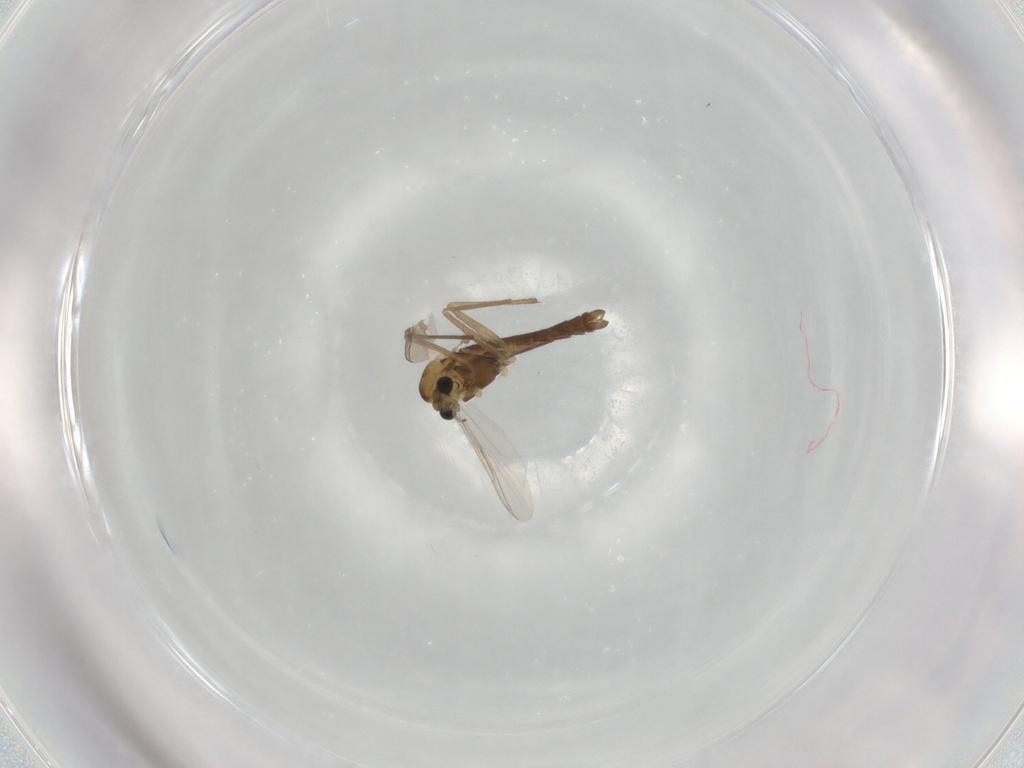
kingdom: Animalia
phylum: Arthropoda
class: Insecta
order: Diptera
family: Chironomidae
